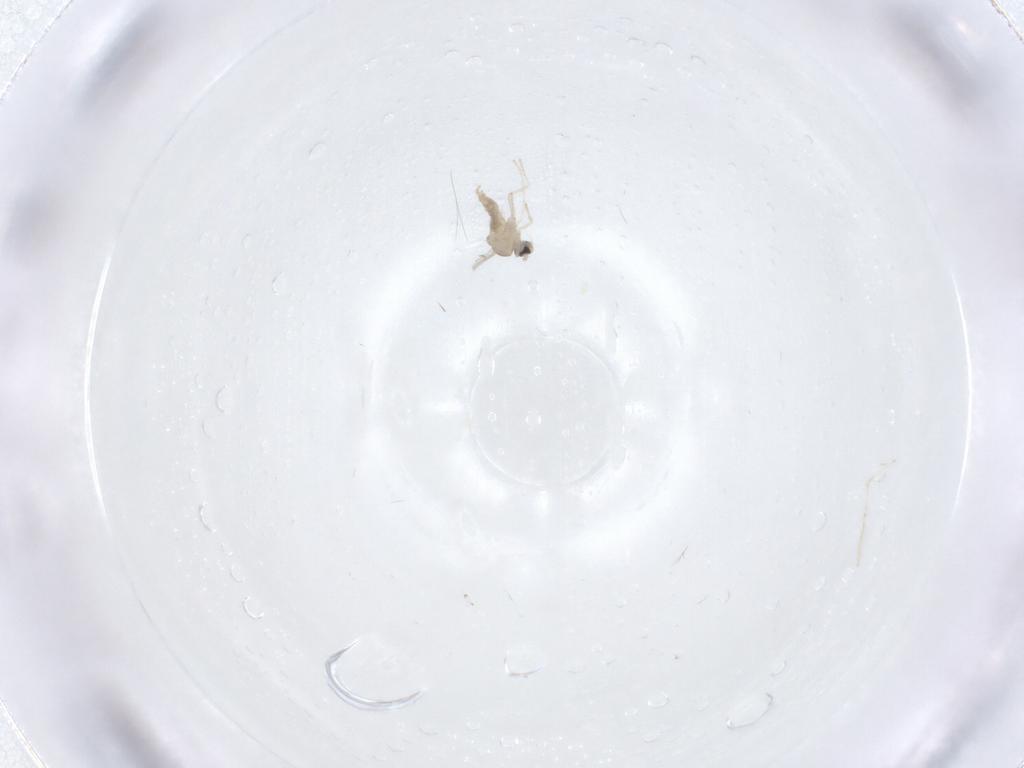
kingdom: Animalia
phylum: Arthropoda
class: Insecta
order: Diptera
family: Cecidomyiidae
